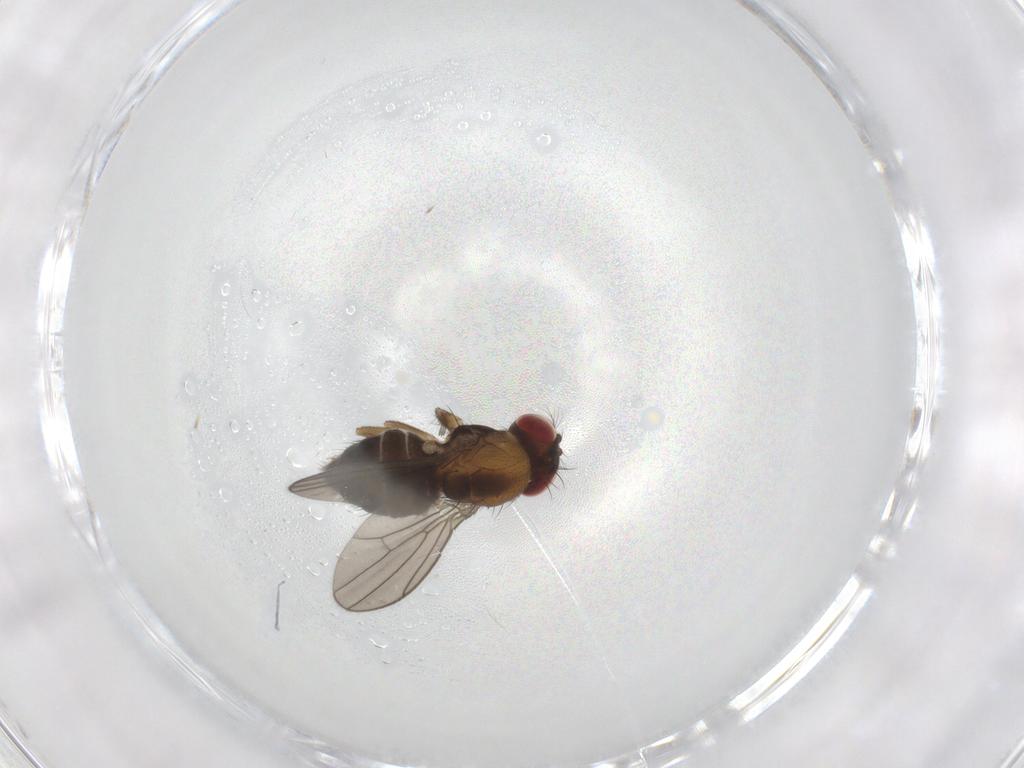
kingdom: Animalia
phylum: Arthropoda
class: Insecta
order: Diptera
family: Drosophilidae
